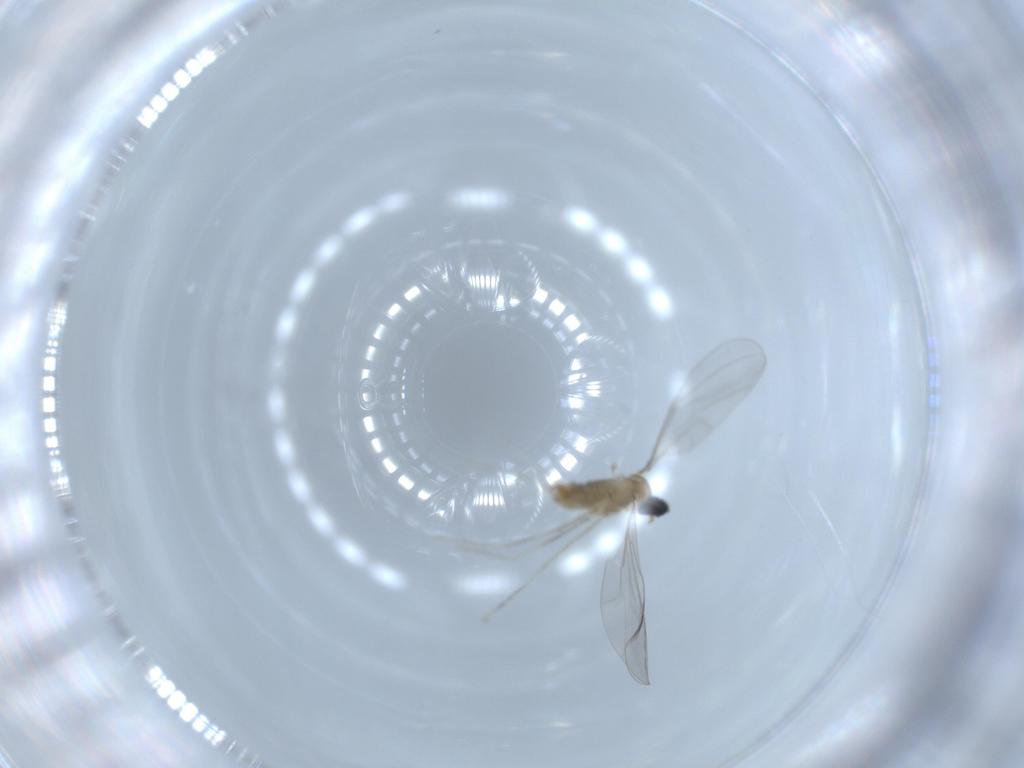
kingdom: Animalia
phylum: Arthropoda
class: Insecta
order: Diptera
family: Cecidomyiidae
